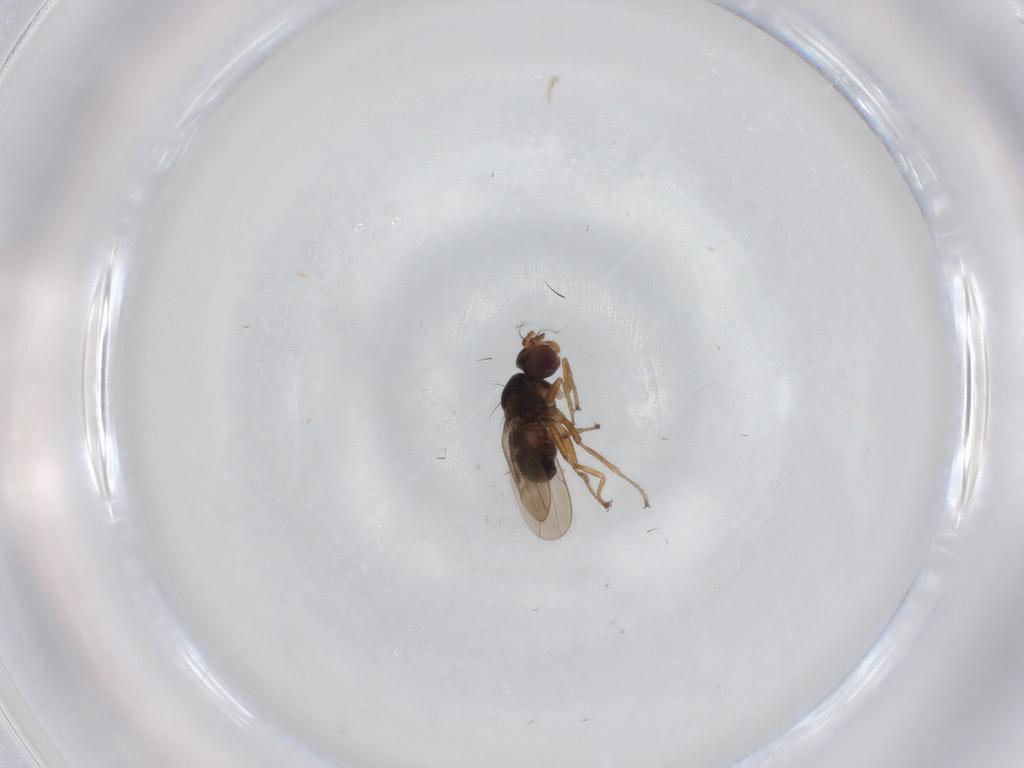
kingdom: Animalia
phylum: Arthropoda
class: Insecta
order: Diptera
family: Ephydridae
